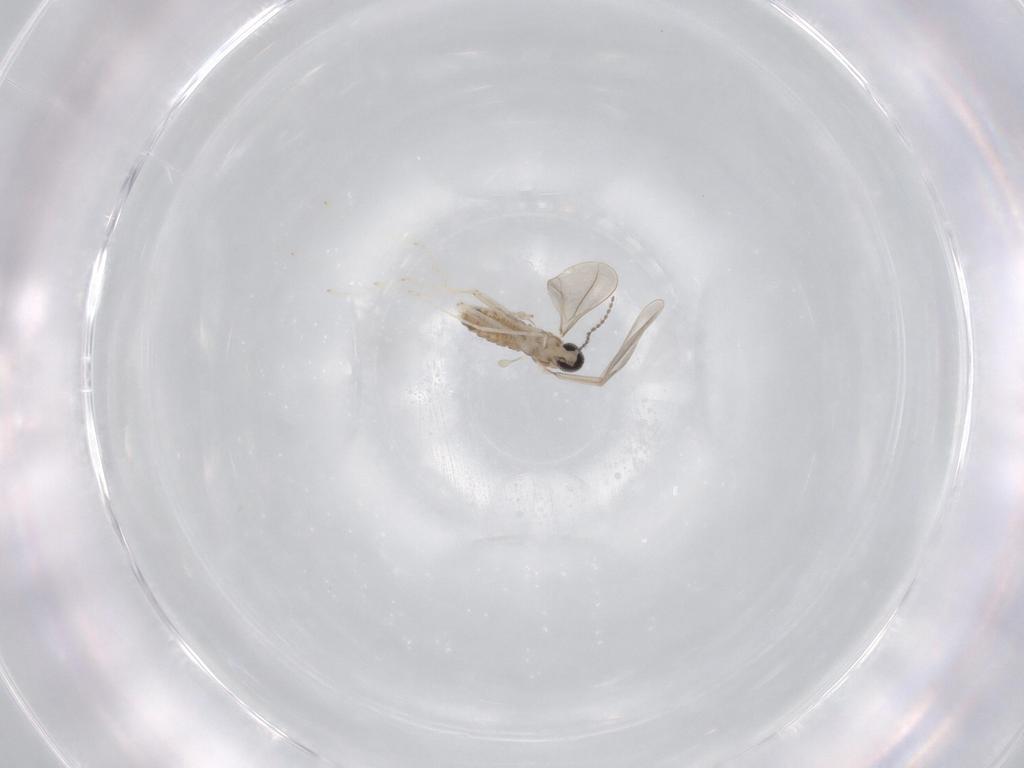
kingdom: Animalia
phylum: Arthropoda
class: Insecta
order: Diptera
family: Cecidomyiidae
